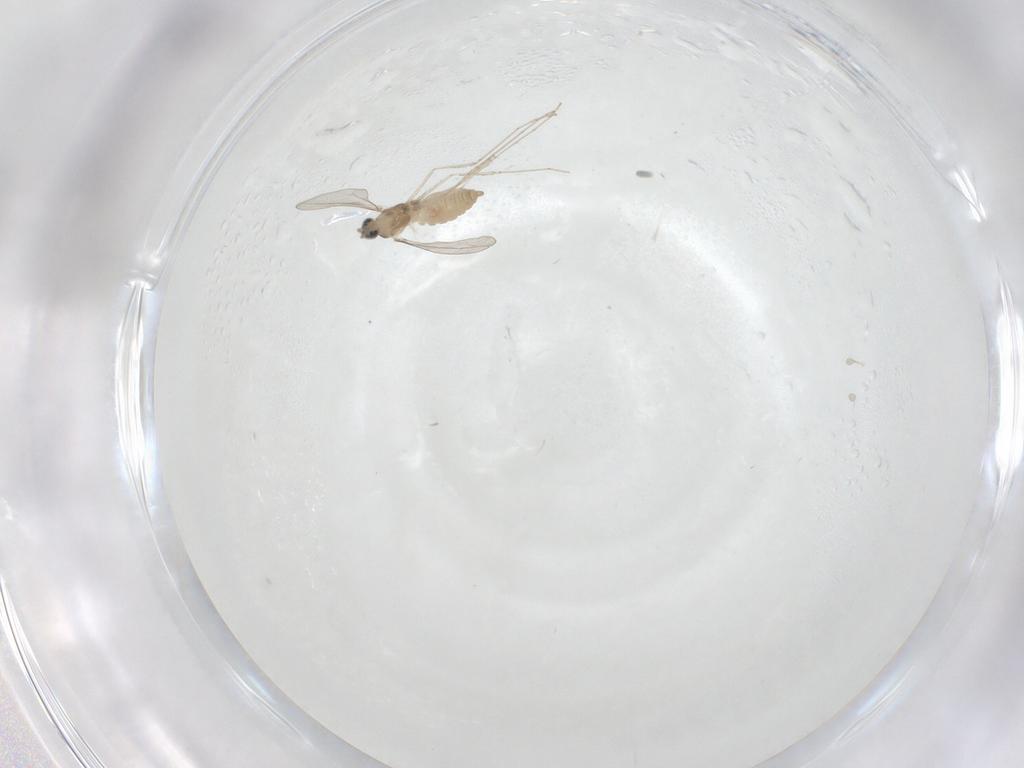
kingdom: Animalia
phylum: Arthropoda
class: Insecta
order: Diptera
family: Cecidomyiidae
